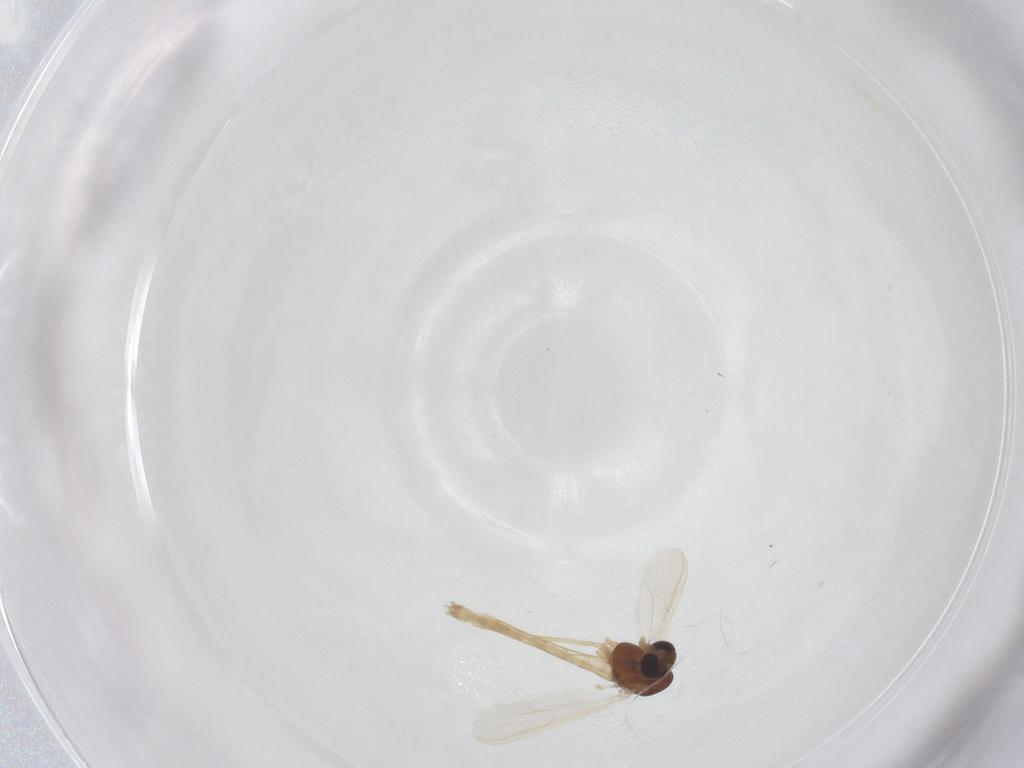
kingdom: Animalia
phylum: Arthropoda
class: Insecta
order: Diptera
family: Chironomidae
